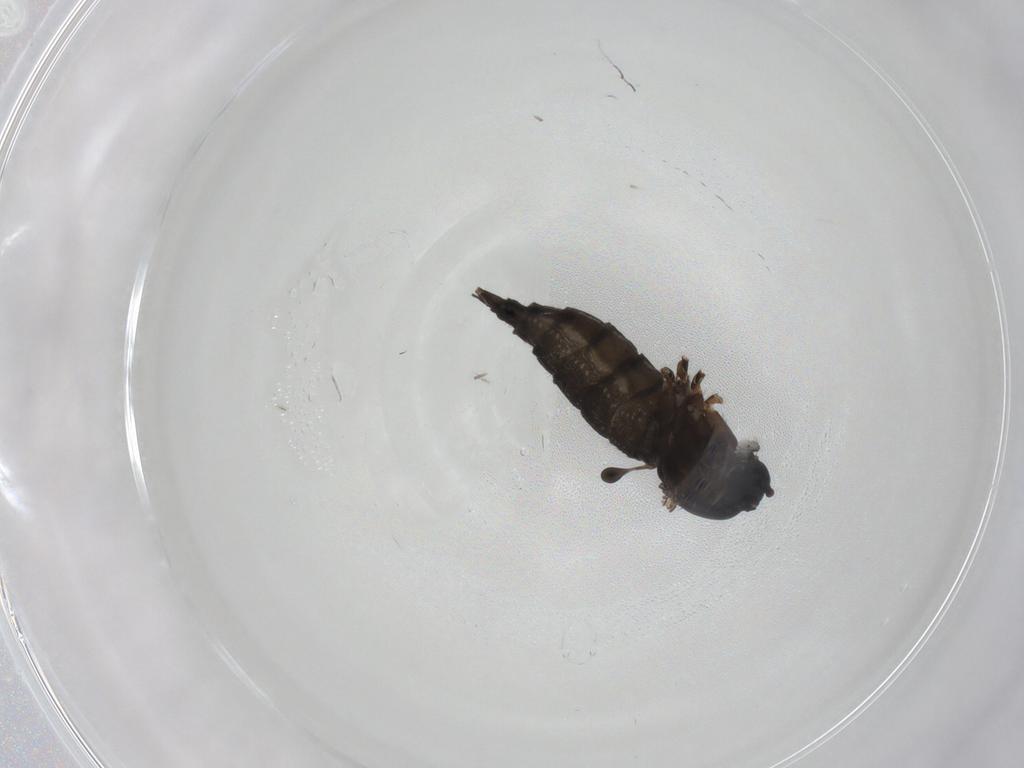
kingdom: Animalia
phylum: Arthropoda
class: Insecta
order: Diptera
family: Sciaridae
